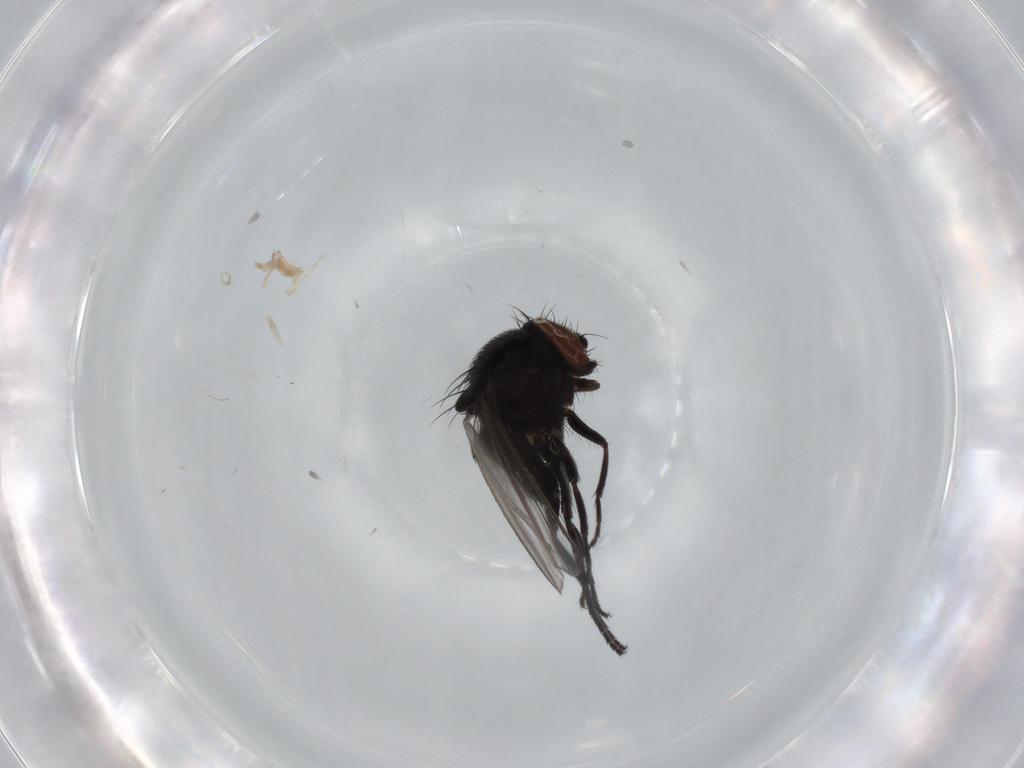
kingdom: Animalia
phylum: Arthropoda
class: Insecta
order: Diptera
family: Milichiidae
